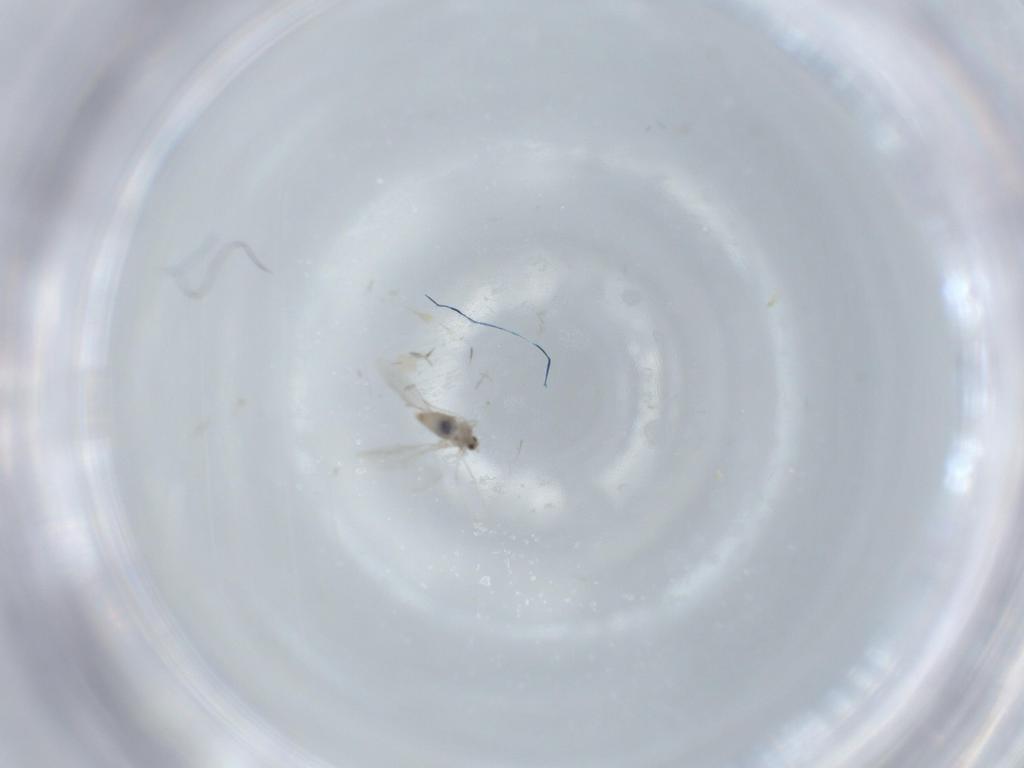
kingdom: Animalia
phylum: Arthropoda
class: Insecta
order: Diptera
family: Cecidomyiidae
